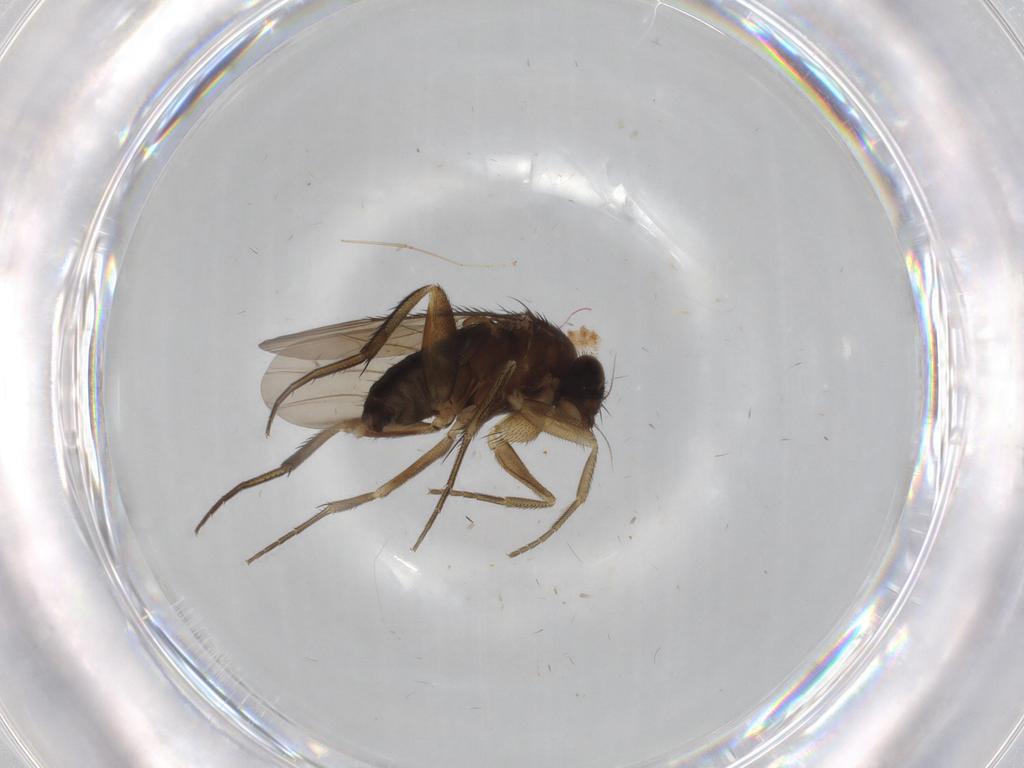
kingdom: Animalia
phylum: Arthropoda
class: Insecta
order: Diptera
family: Phoridae
